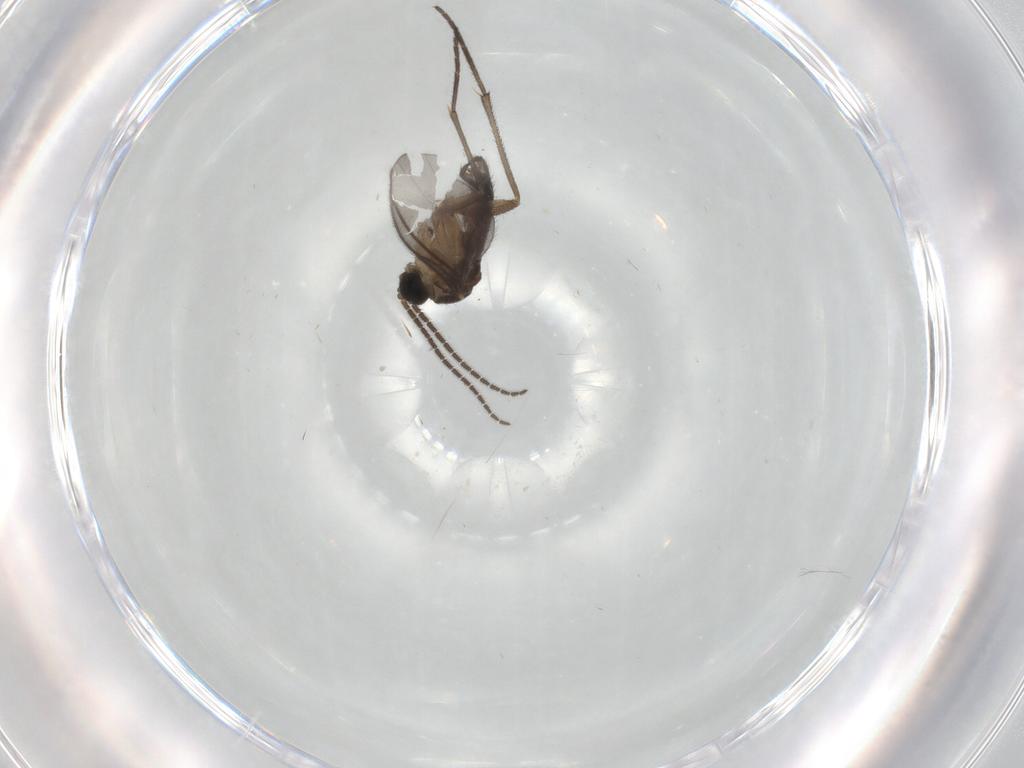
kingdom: Animalia
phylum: Arthropoda
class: Insecta
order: Diptera
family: Sciaridae
